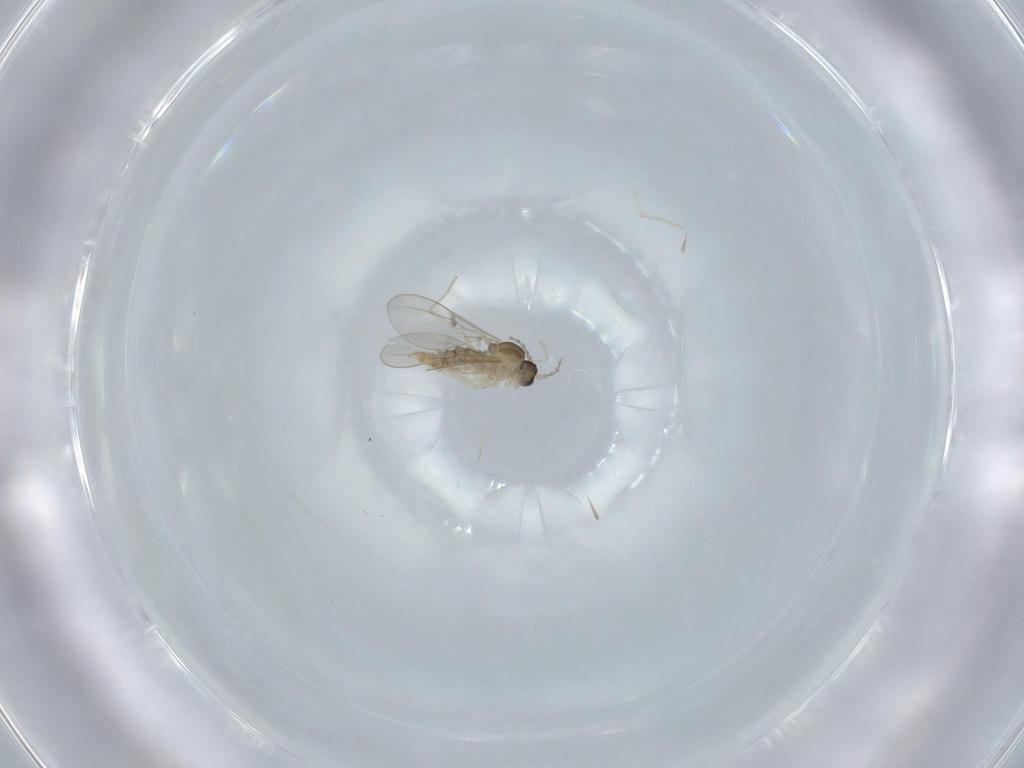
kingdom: Animalia
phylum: Arthropoda
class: Insecta
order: Diptera
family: Cecidomyiidae
